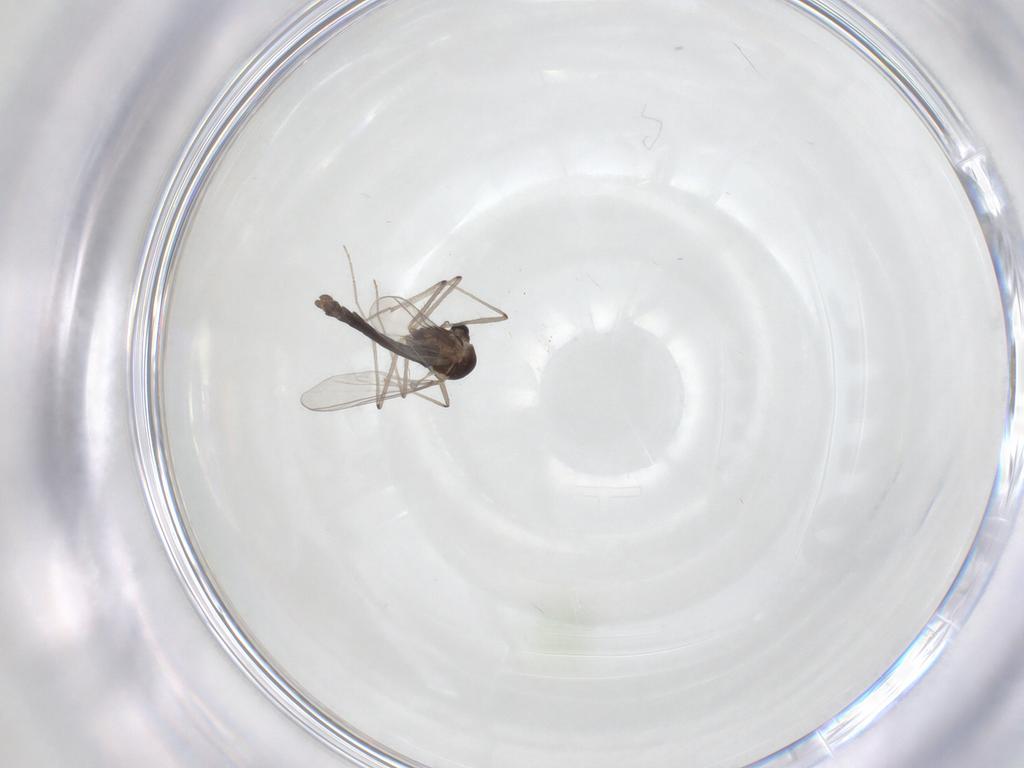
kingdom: Animalia
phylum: Arthropoda
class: Insecta
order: Diptera
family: Chironomidae
